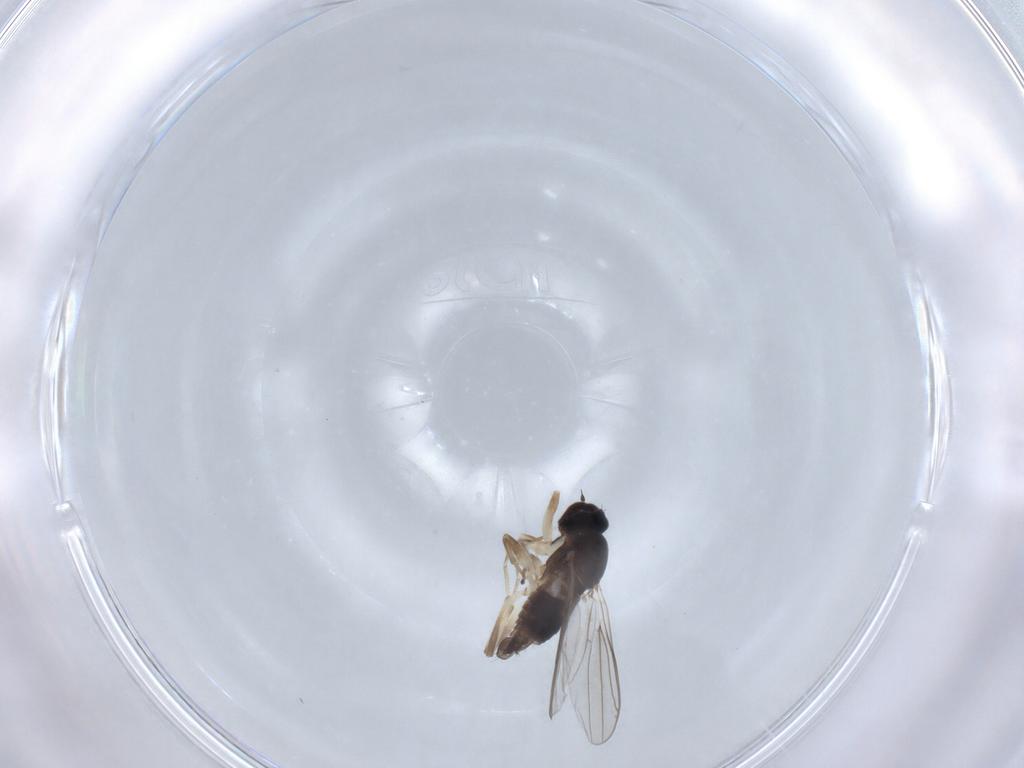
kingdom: Animalia
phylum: Arthropoda
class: Insecta
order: Diptera
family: Hybotidae
